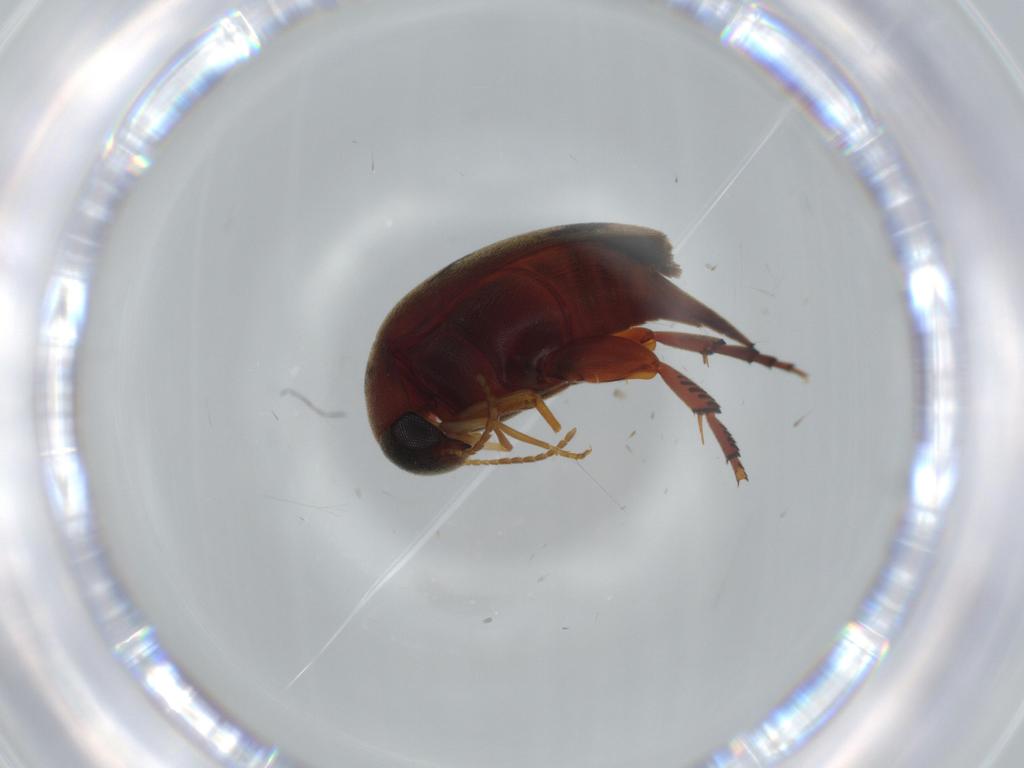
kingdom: Animalia
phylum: Arthropoda
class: Insecta
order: Coleoptera
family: Mordellidae
